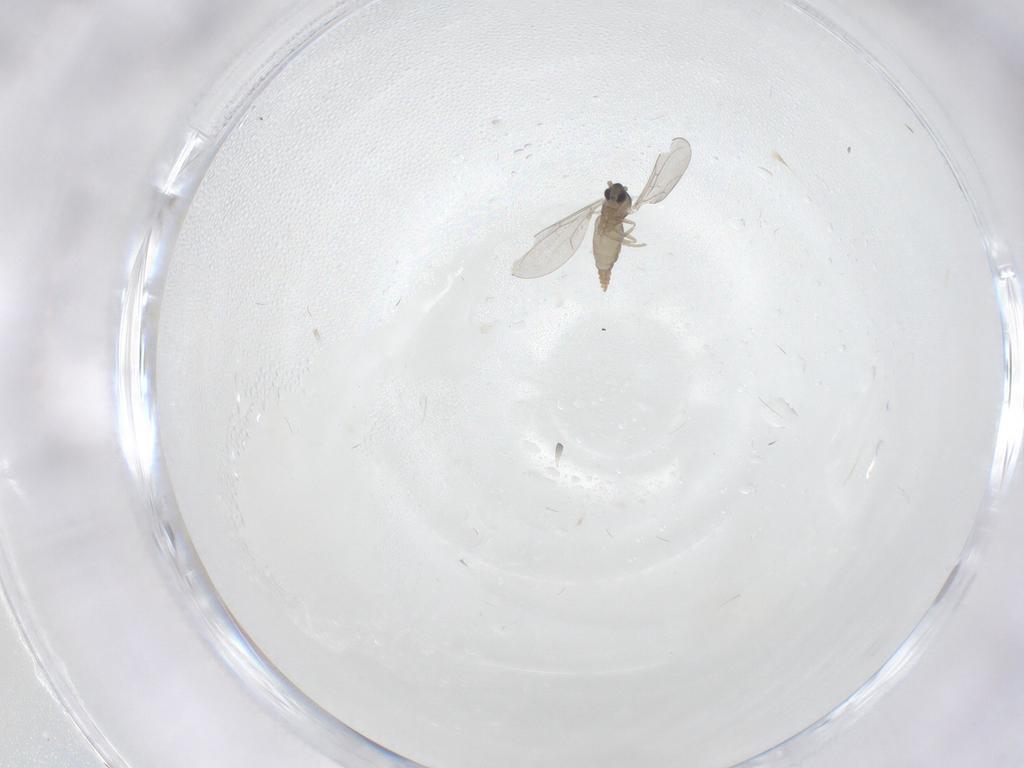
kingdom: Animalia
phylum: Arthropoda
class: Insecta
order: Diptera
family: Cecidomyiidae
